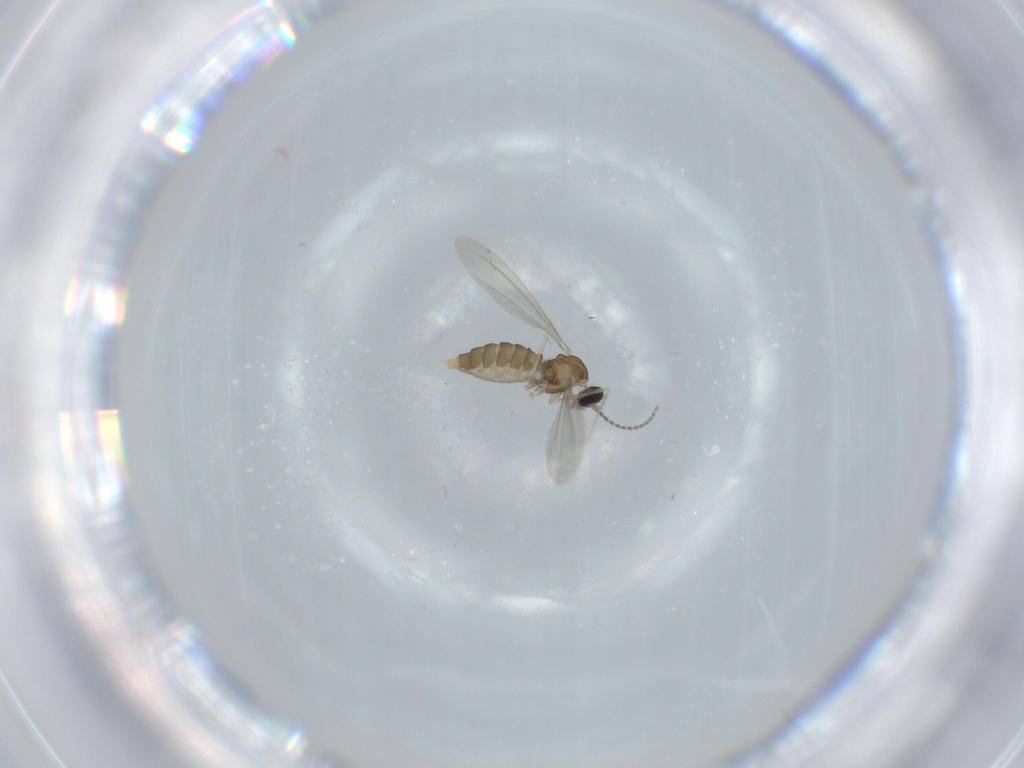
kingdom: Animalia
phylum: Arthropoda
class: Insecta
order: Diptera
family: Cecidomyiidae
